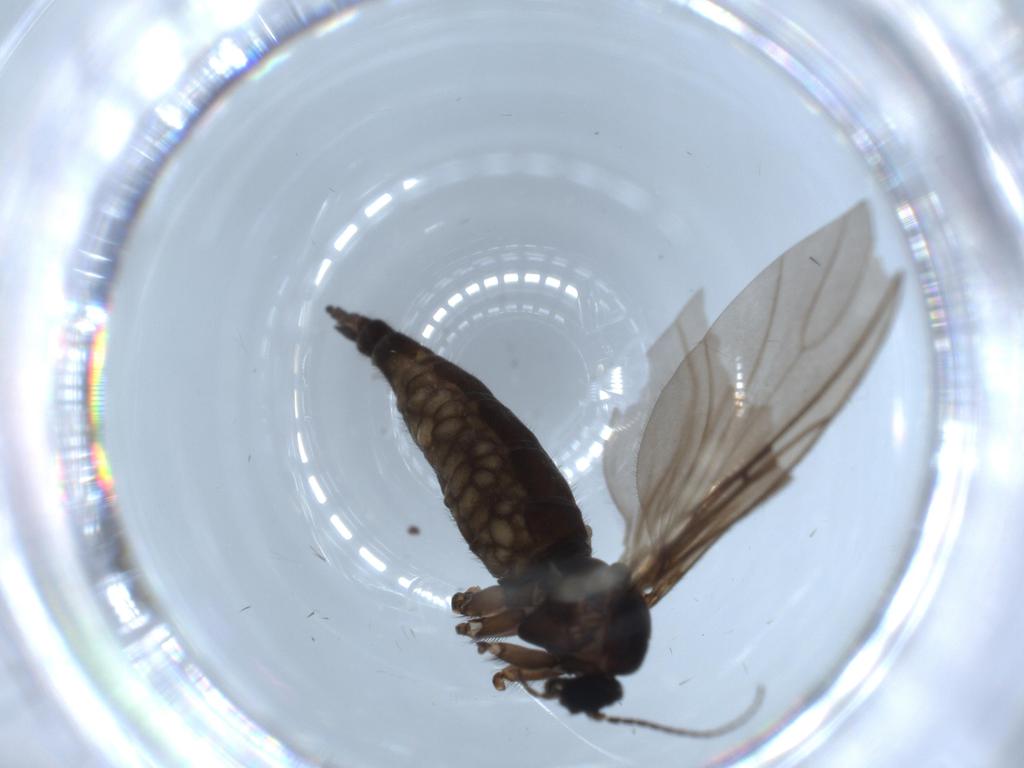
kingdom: Animalia
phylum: Arthropoda
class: Insecta
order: Diptera
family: Sciaridae
